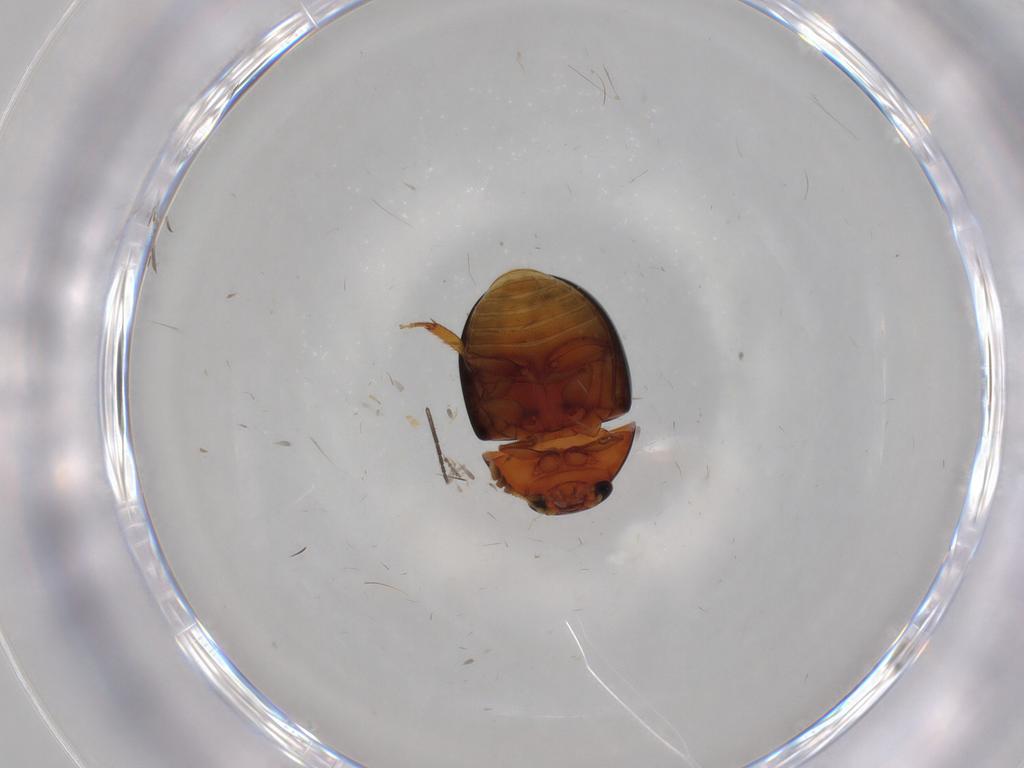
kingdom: Animalia
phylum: Arthropoda
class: Insecta
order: Coleoptera
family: Phalacridae
